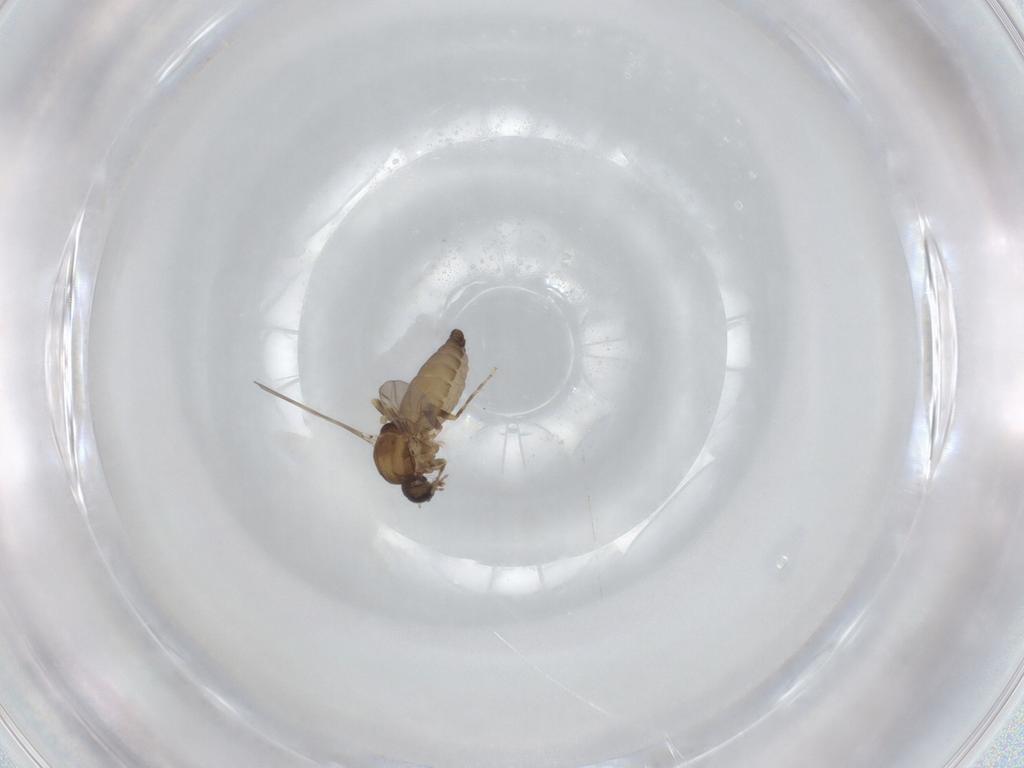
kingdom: Animalia
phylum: Arthropoda
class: Insecta
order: Diptera
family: Ceratopogonidae
